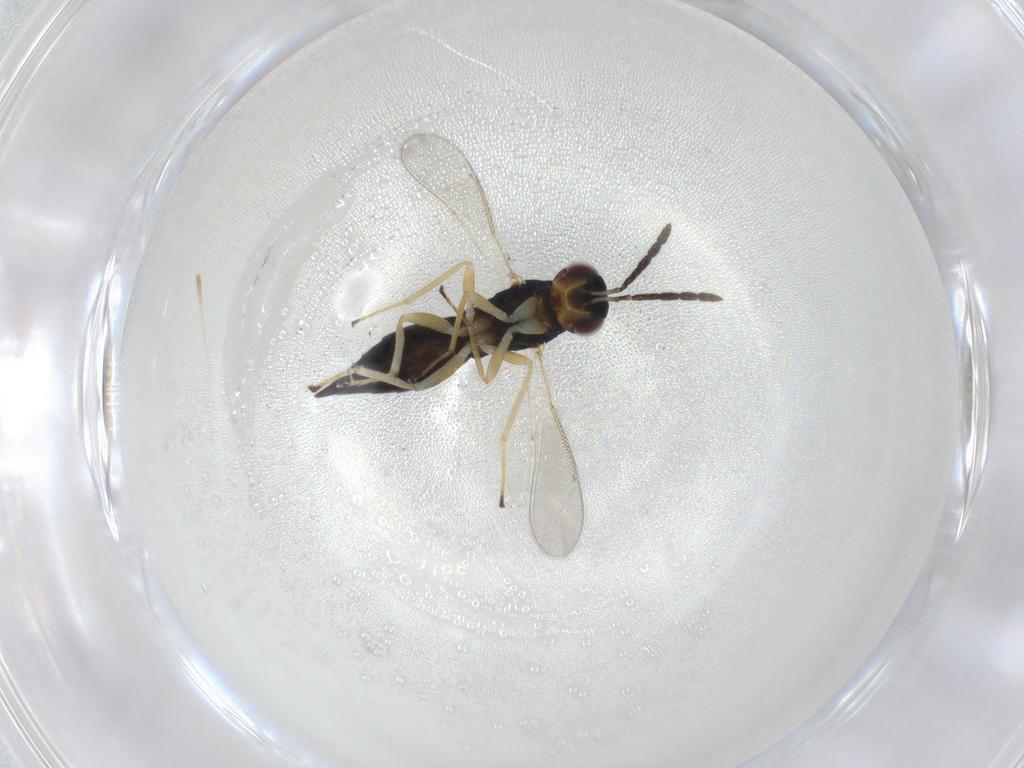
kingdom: Animalia
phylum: Arthropoda
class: Insecta
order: Hymenoptera
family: Eulophidae
